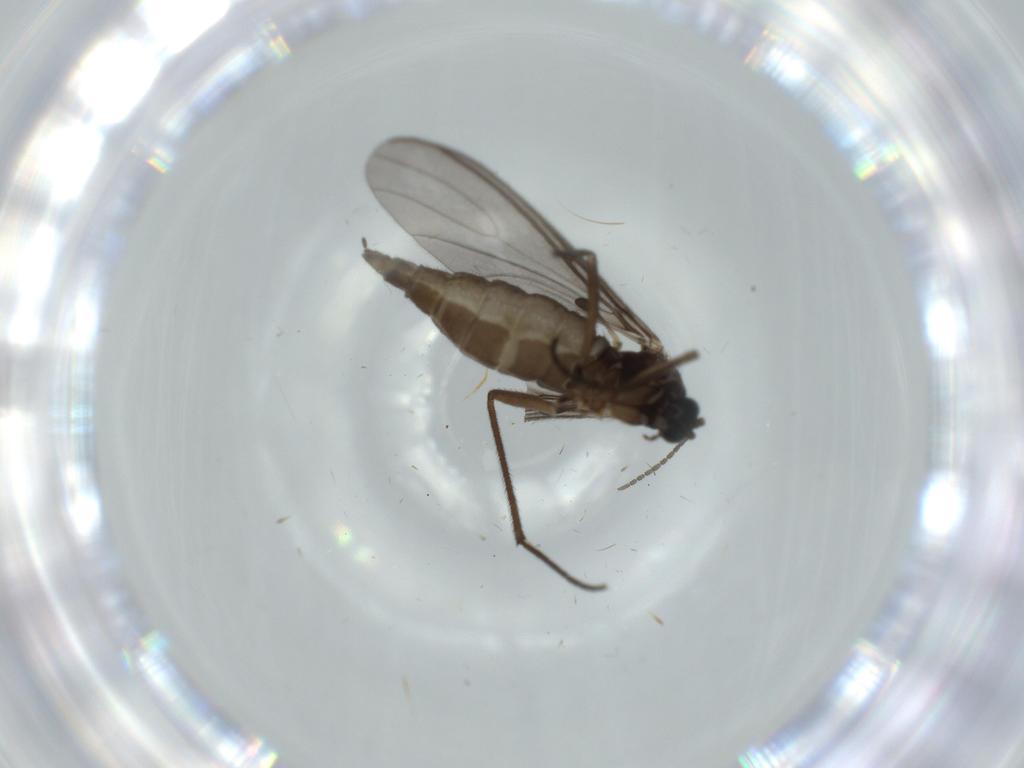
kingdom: Animalia
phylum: Arthropoda
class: Insecta
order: Diptera
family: Sciaridae
